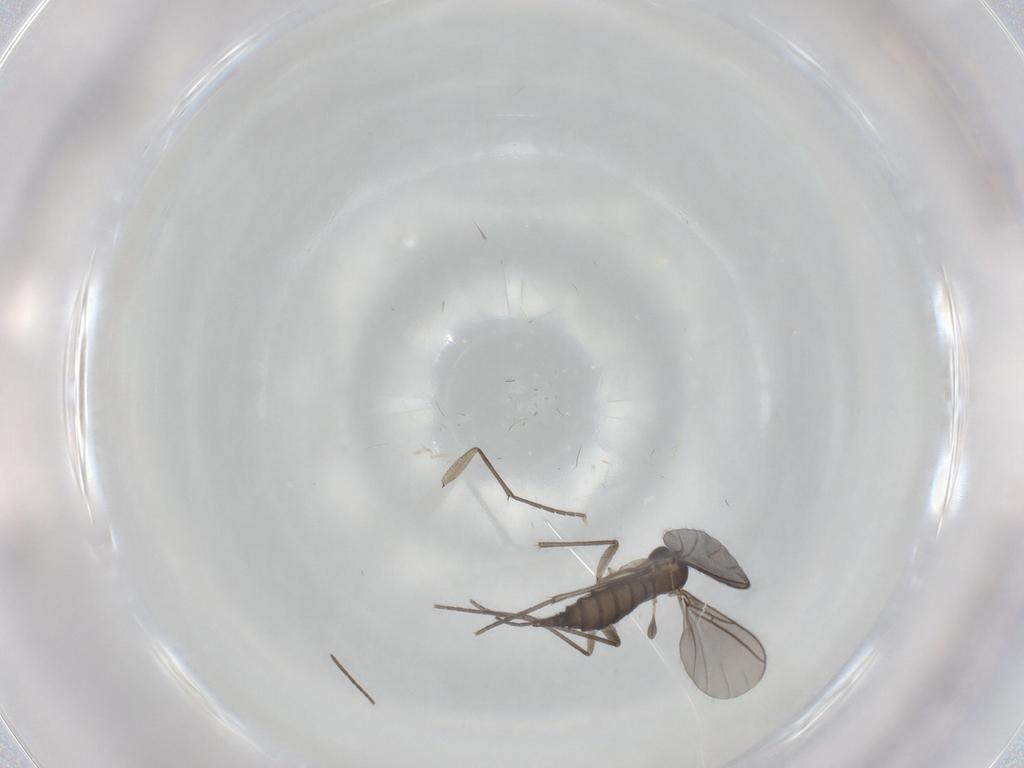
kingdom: Animalia
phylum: Arthropoda
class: Insecta
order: Diptera
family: Sciaridae
